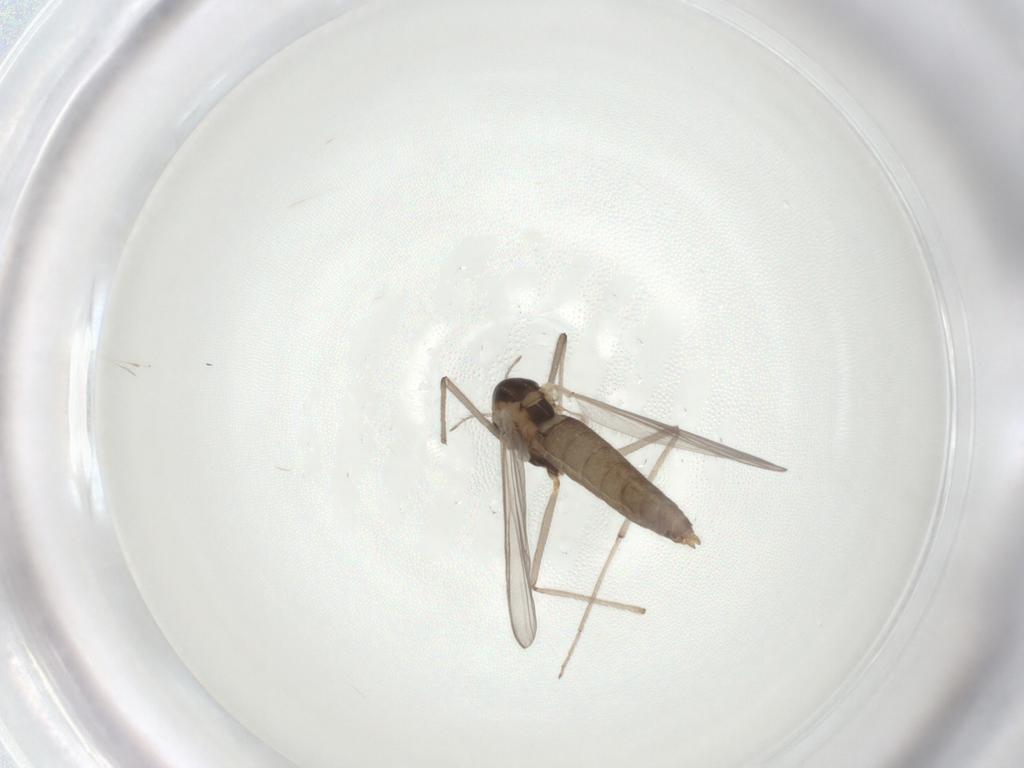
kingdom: Animalia
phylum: Arthropoda
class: Insecta
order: Diptera
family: Chironomidae
